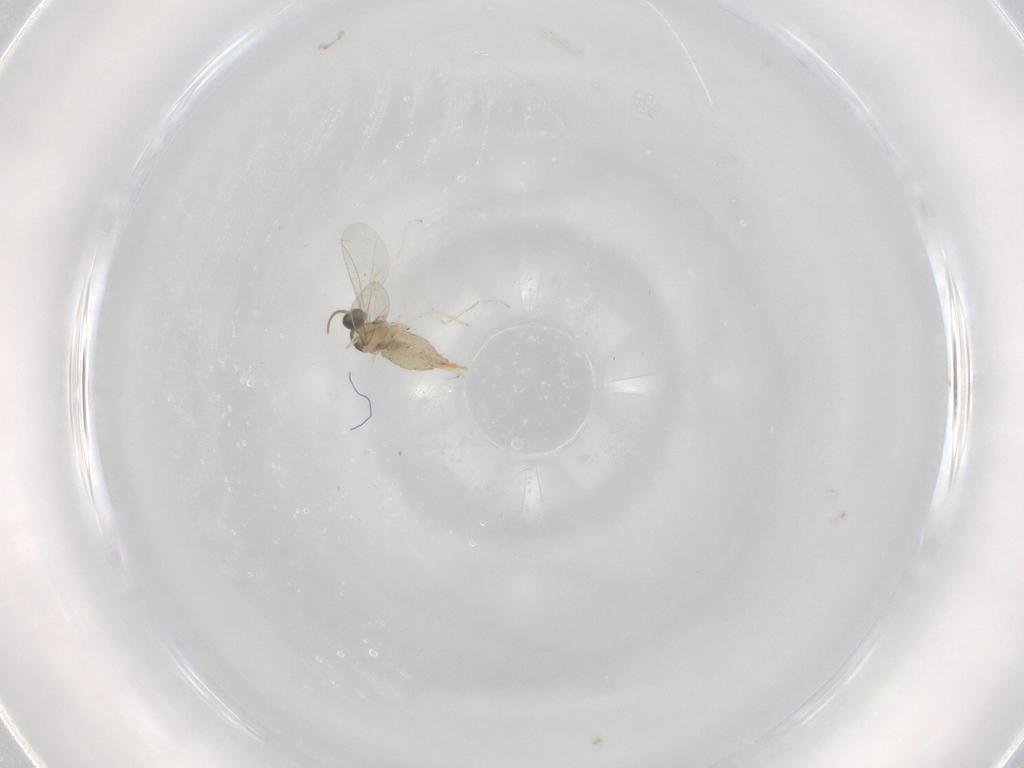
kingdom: Animalia
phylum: Arthropoda
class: Insecta
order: Diptera
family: Cecidomyiidae
